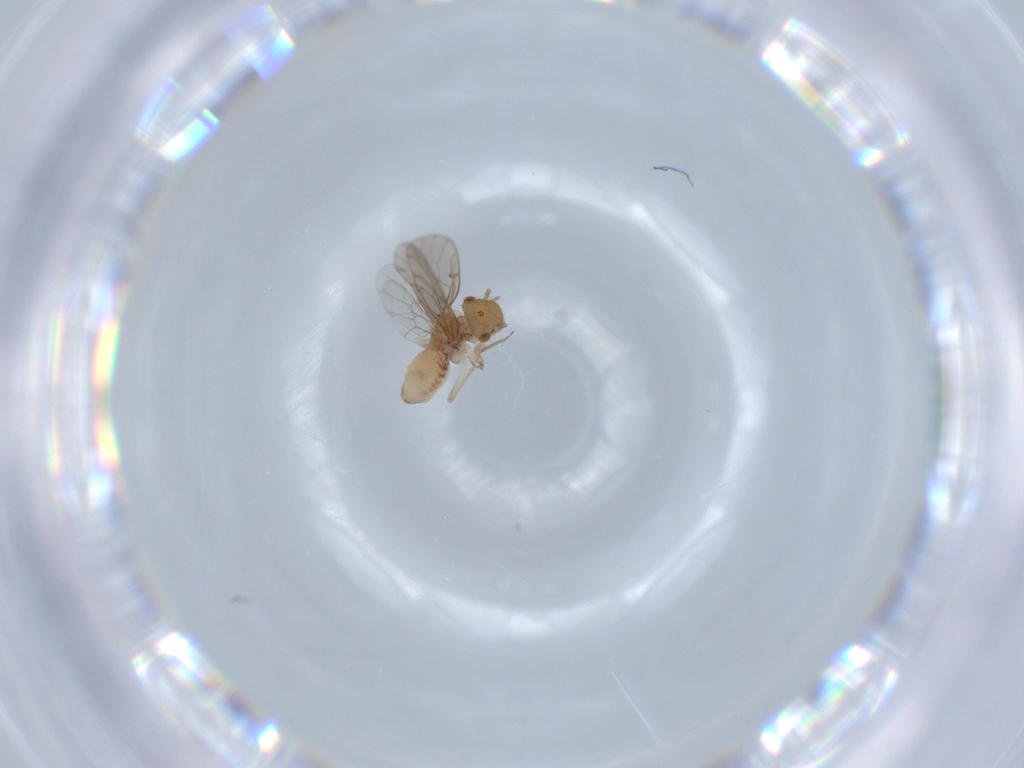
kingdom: Animalia
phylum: Arthropoda
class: Insecta
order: Psocodea
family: Ectopsocidae
